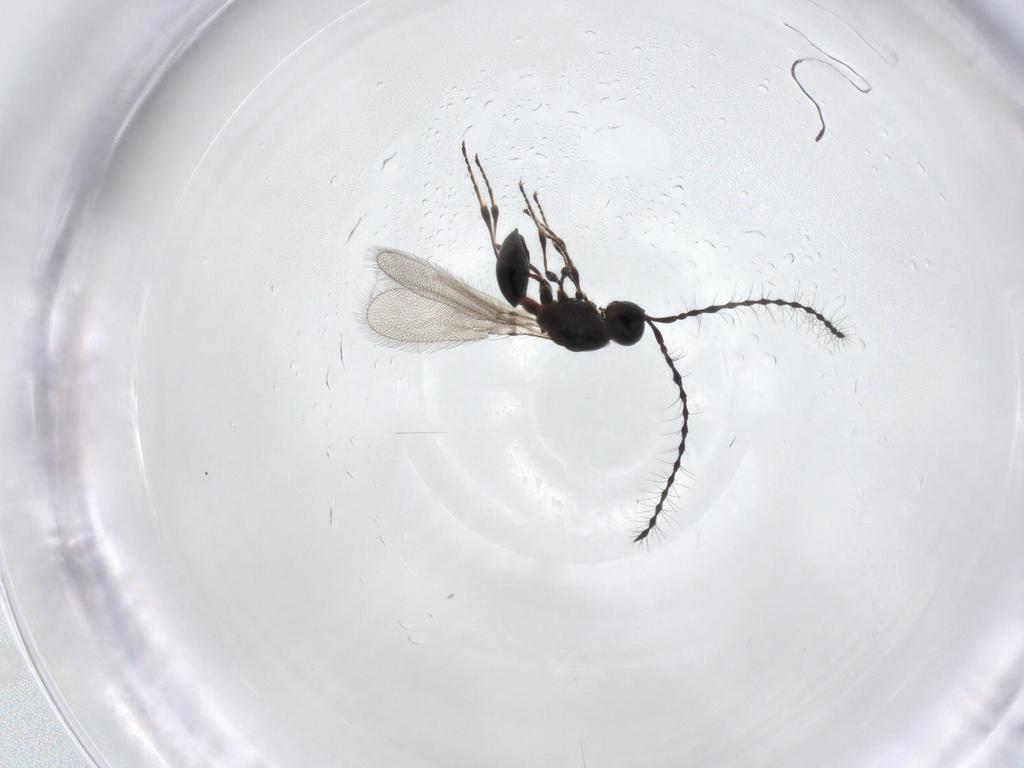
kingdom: Animalia
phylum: Arthropoda
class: Insecta
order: Hymenoptera
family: Diapriidae
